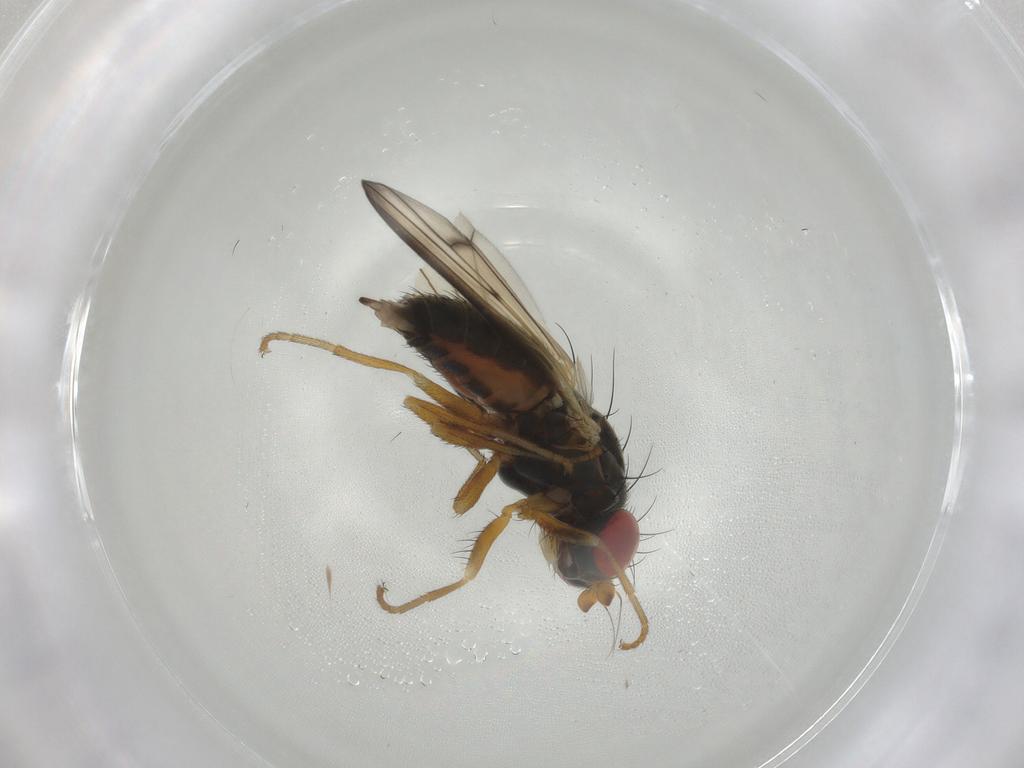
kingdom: Animalia
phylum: Arthropoda
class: Insecta
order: Diptera
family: Chamaemyiidae
